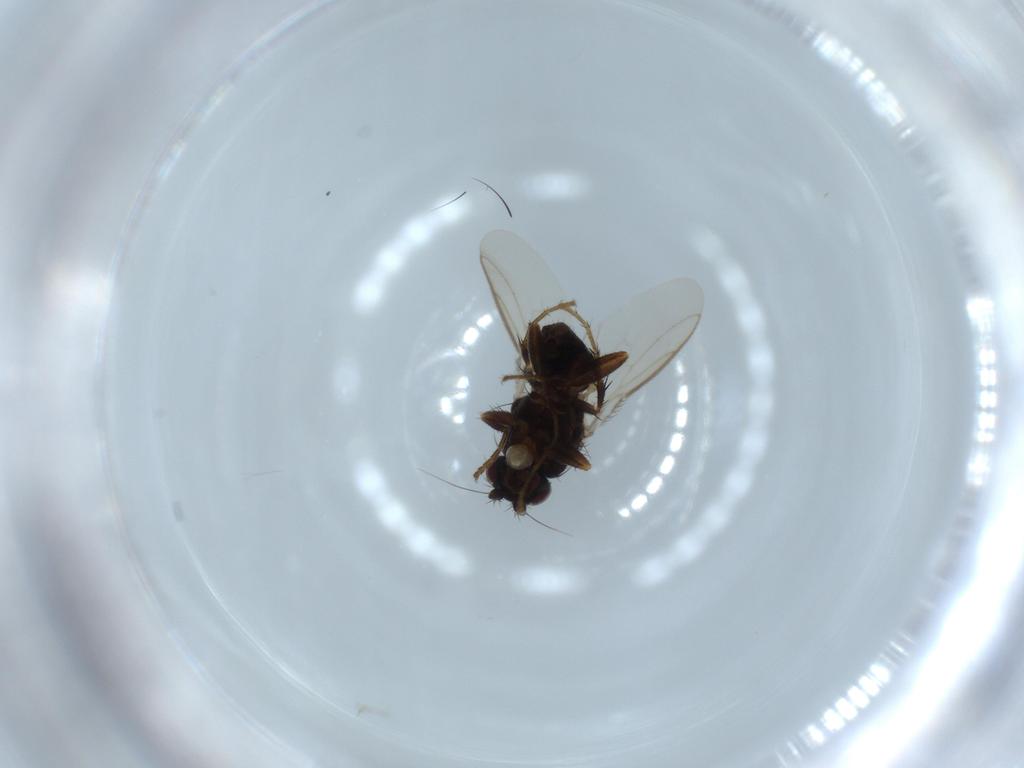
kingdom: Animalia
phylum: Arthropoda
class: Insecta
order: Diptera
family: Sphaeroceridae
